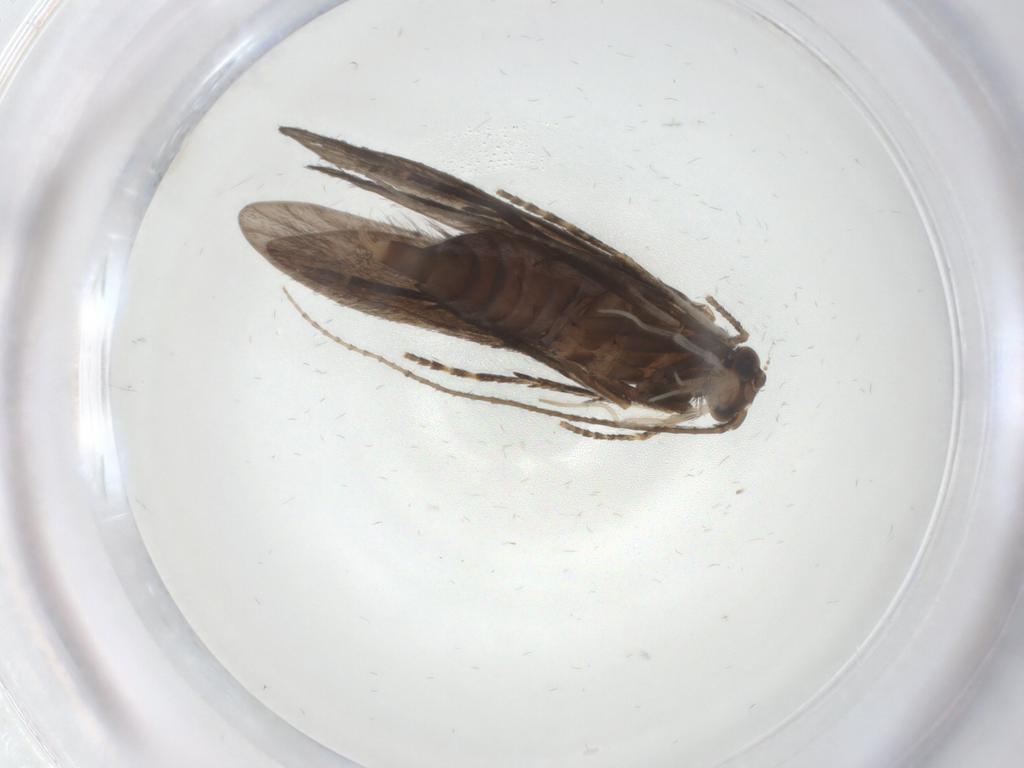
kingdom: Animalia
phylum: Arthropoda
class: Insecta
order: Trichoptera
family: Xiphocentronidae
